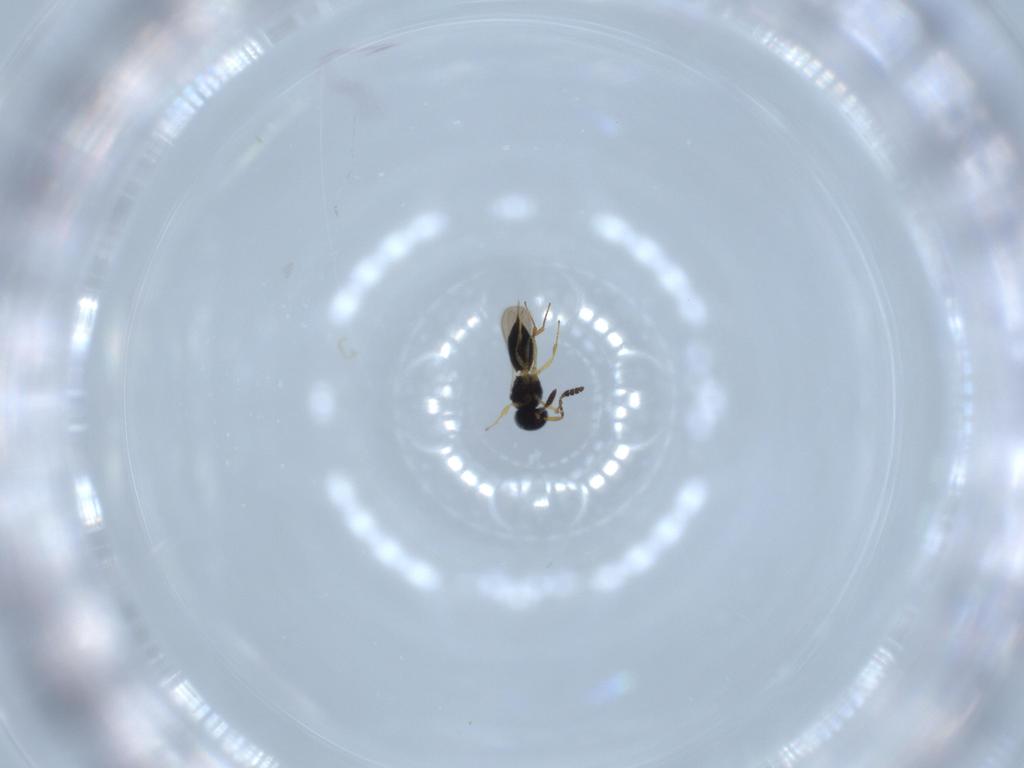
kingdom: Animalia
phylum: Arthropoda
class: Insecta
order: Hymenoptera
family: Scelionidae
